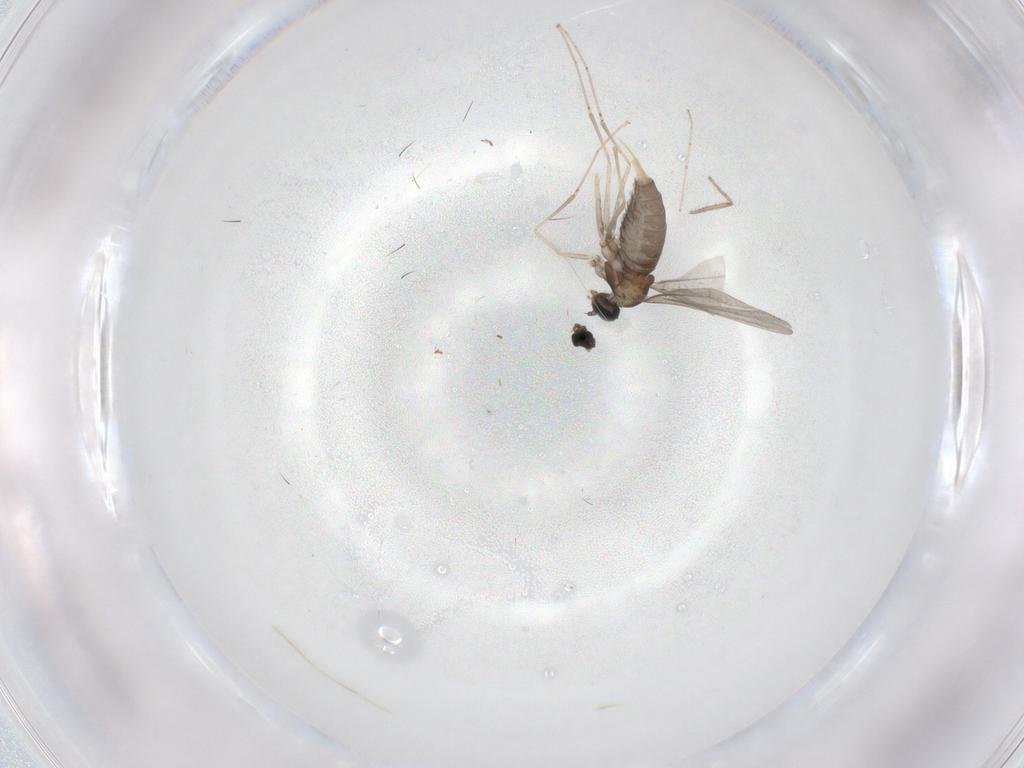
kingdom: Animalia
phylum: Arthropoda
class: Insecta
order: Diptera
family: Cecidomyiidae
